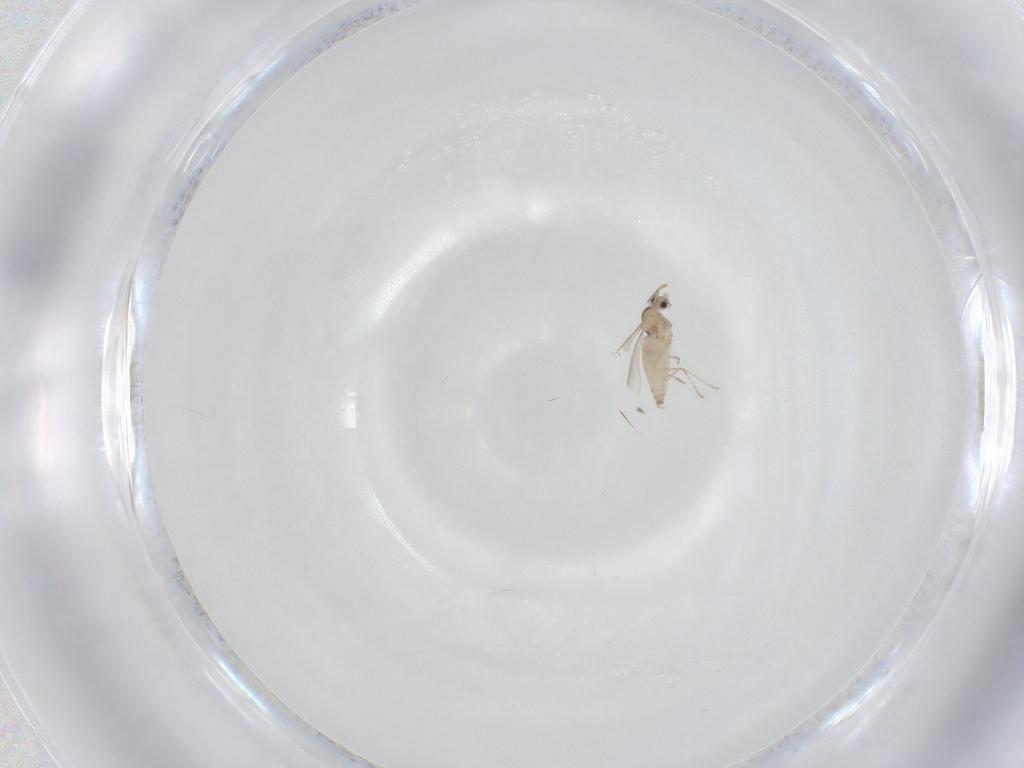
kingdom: Animalia
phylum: Arthropoda
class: Insecta
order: Diptera
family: Cecidomyiidae
